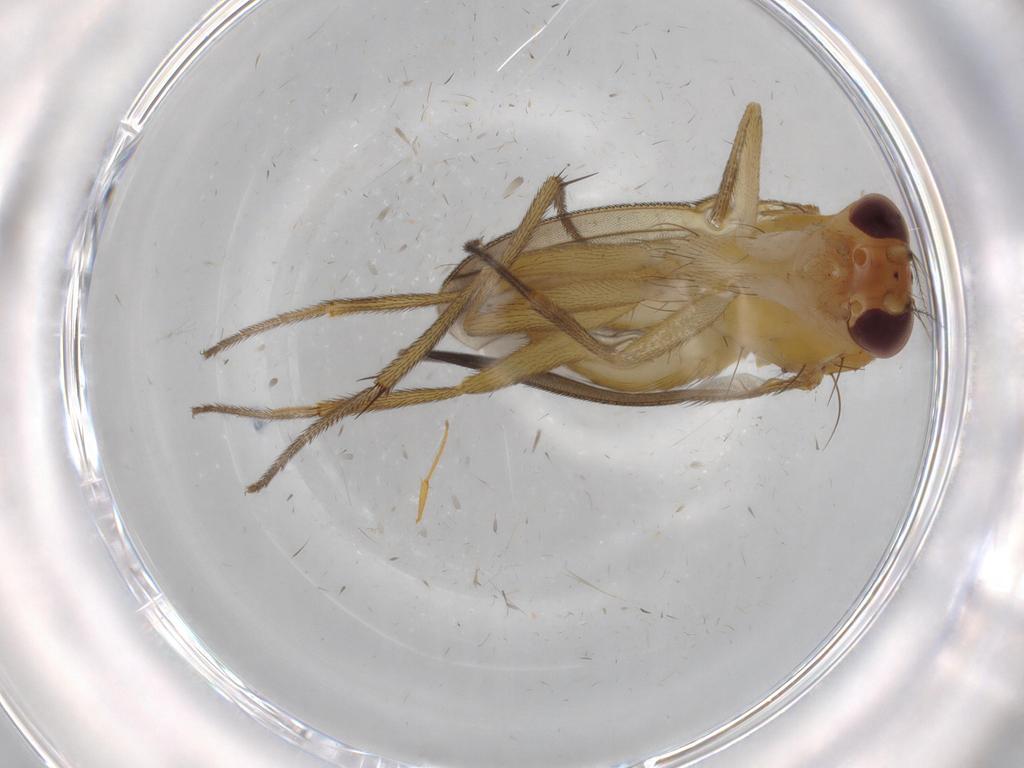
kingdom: Animalia
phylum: Arthropoda
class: Insecta
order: Diptera
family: Clusiidae
